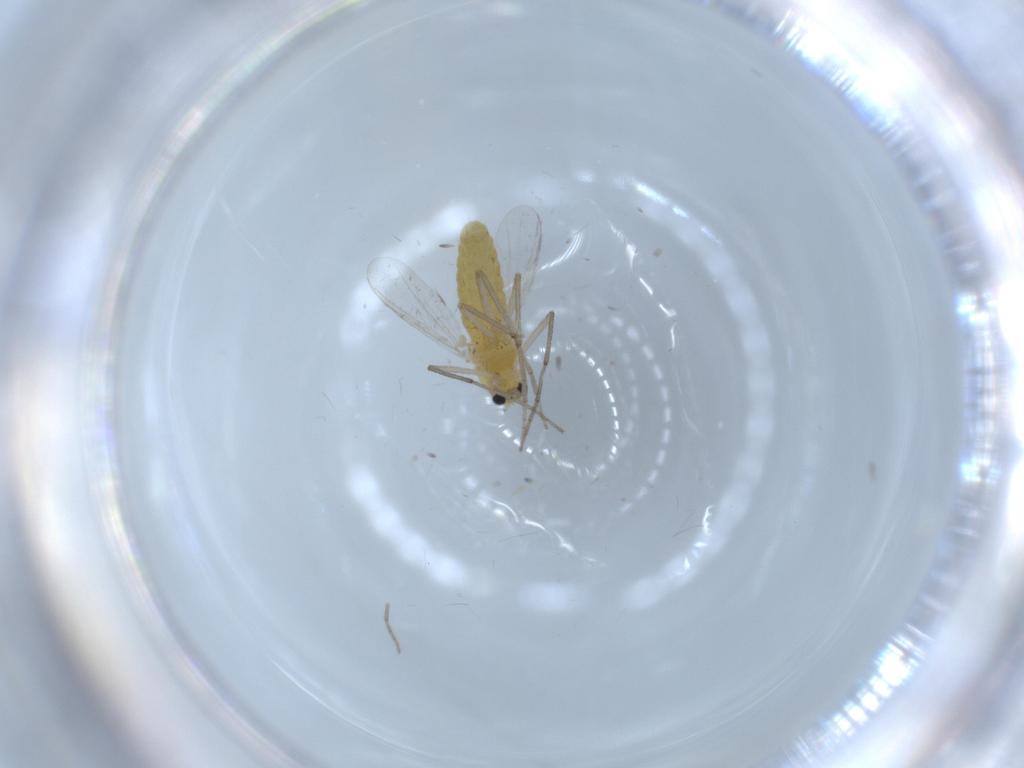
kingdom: Animalia
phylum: Arthropoda
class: Insecta
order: Diptera
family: Chironomidae
